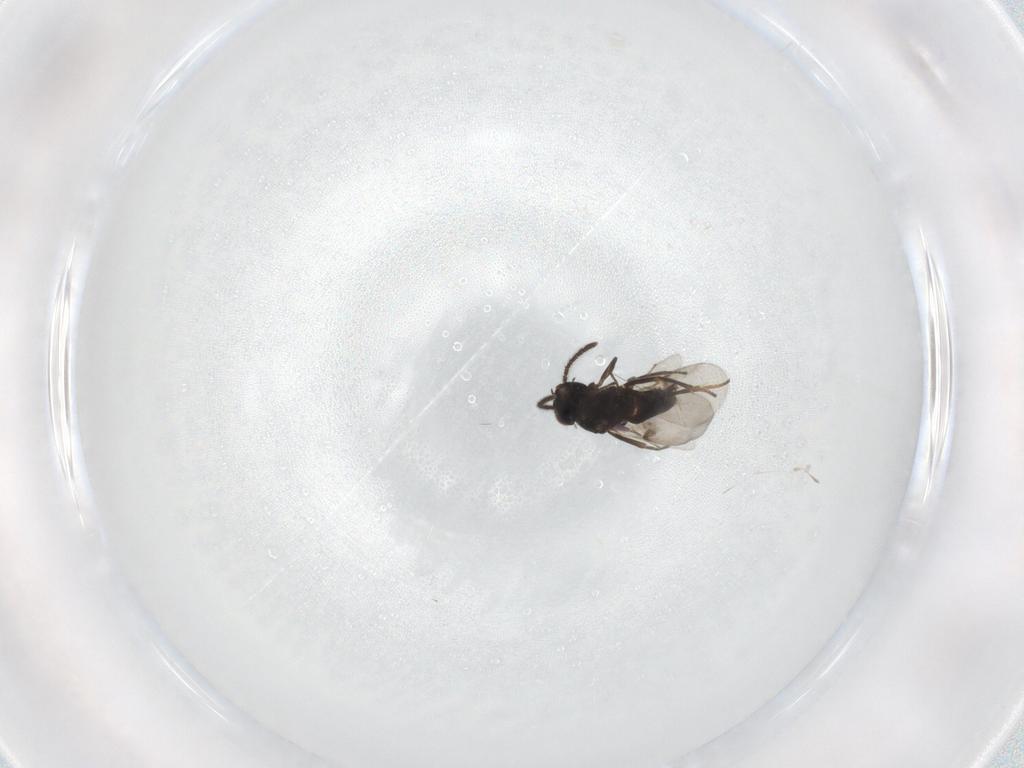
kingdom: Animalia
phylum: Arthropoda
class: Insecta
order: Hymenoptera
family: Encyrtidae
